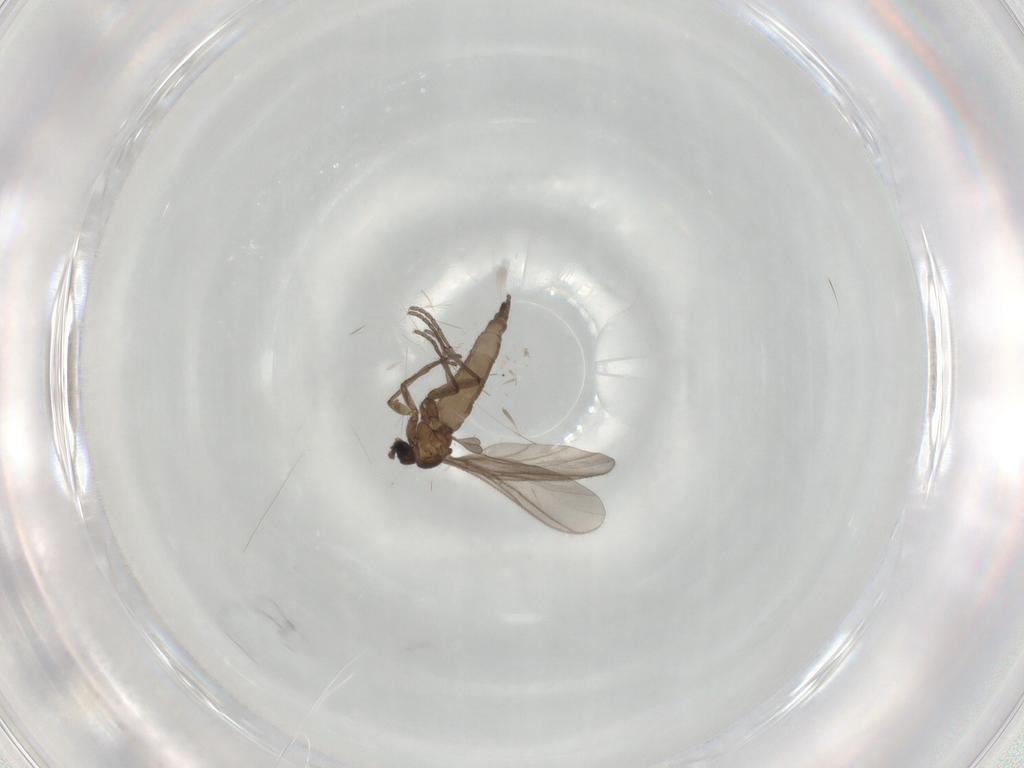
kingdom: Animalia
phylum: Arthropoda
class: Insecta
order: Diptera
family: Sciaridae
